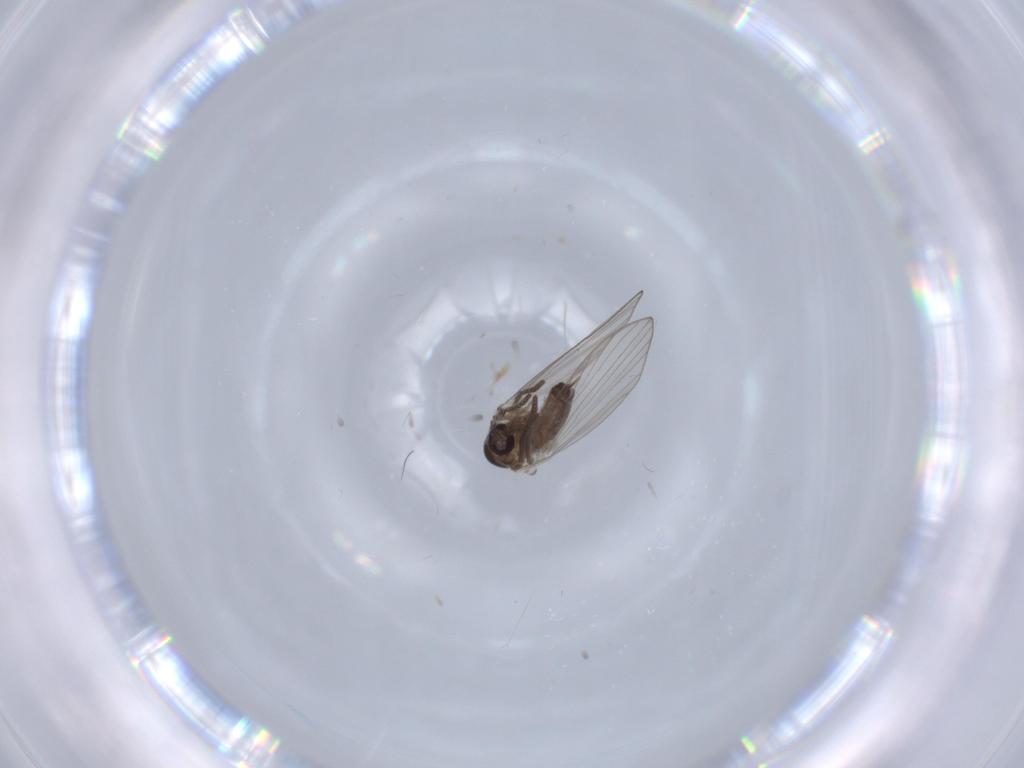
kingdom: Animalia
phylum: Arthropoda
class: Insecta
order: Diptera
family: Psychodidae
